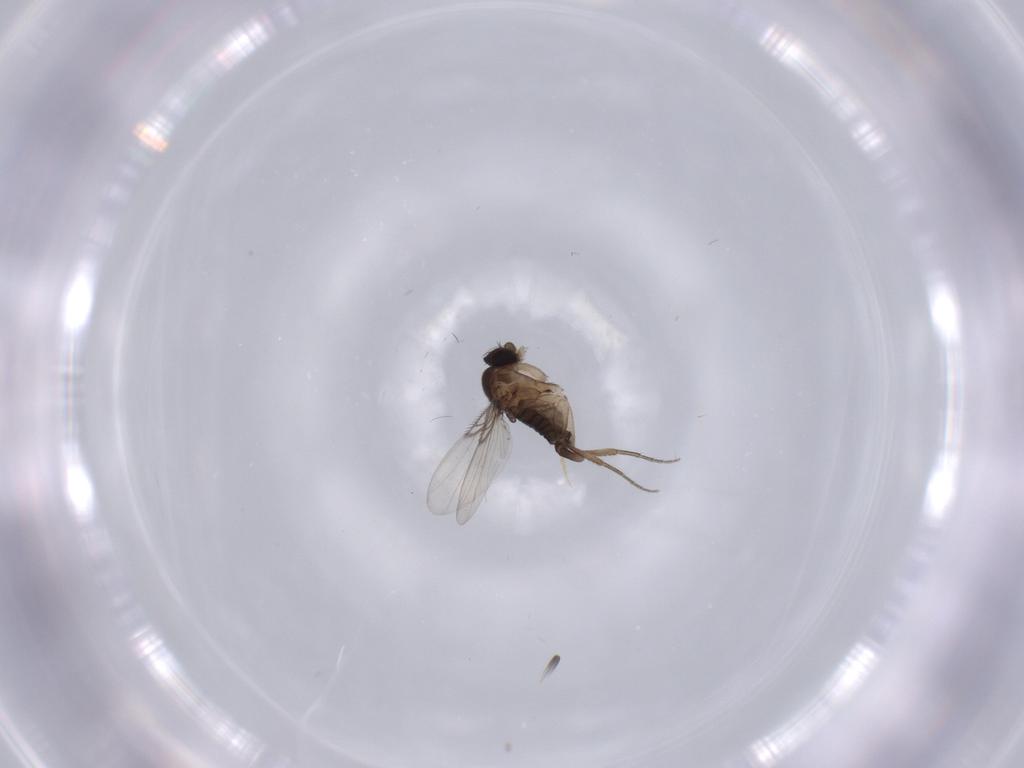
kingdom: Animalia
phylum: Arthropoda
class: Insecta
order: Diptera
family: Phoridae
